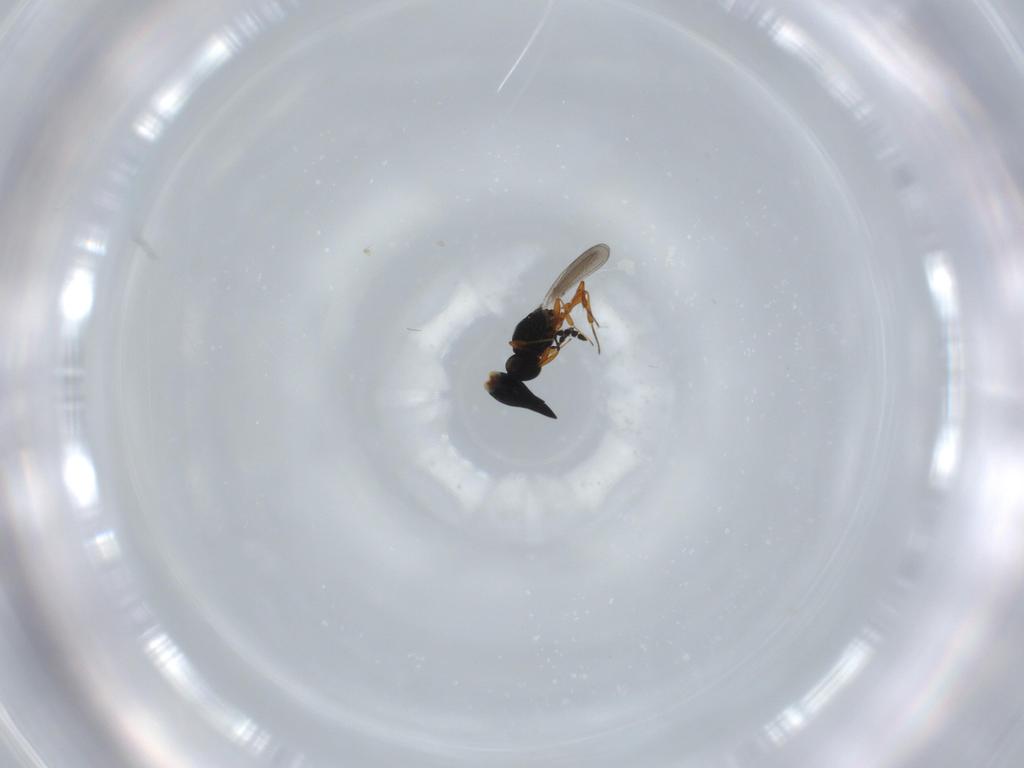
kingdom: Animalia
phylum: Arthropoda
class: Insecta
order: Hymenoptera
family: Platygastridae
